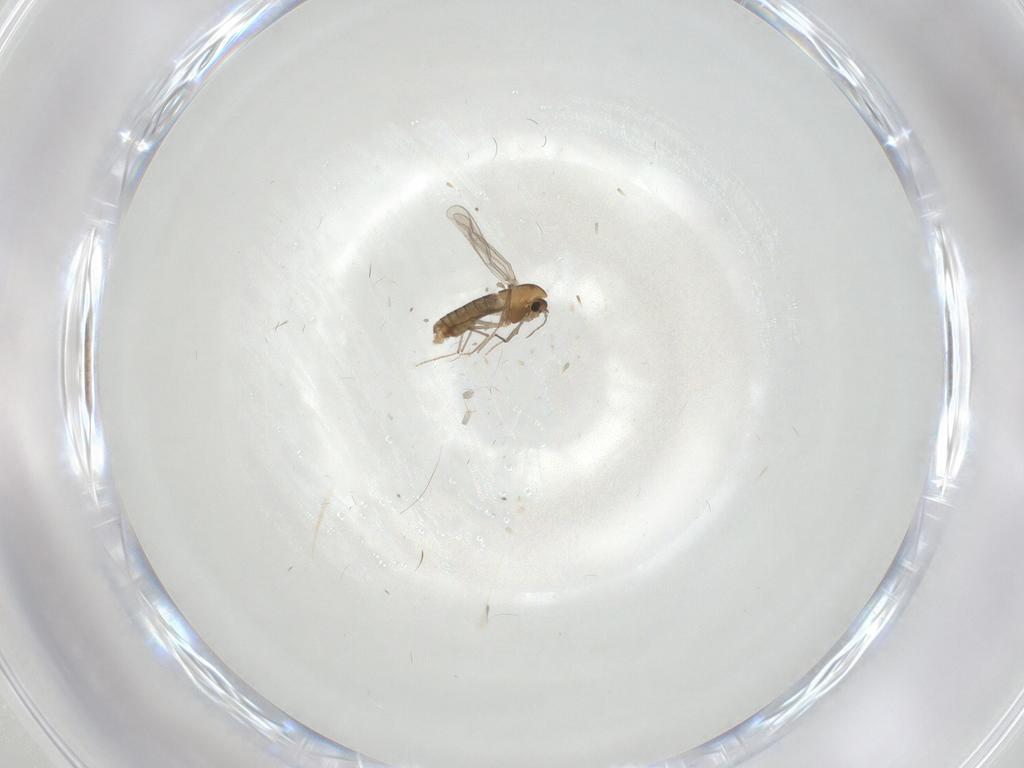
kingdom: Animalia
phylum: Arthropoda
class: Insecta
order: Diptera
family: Chironomidae
